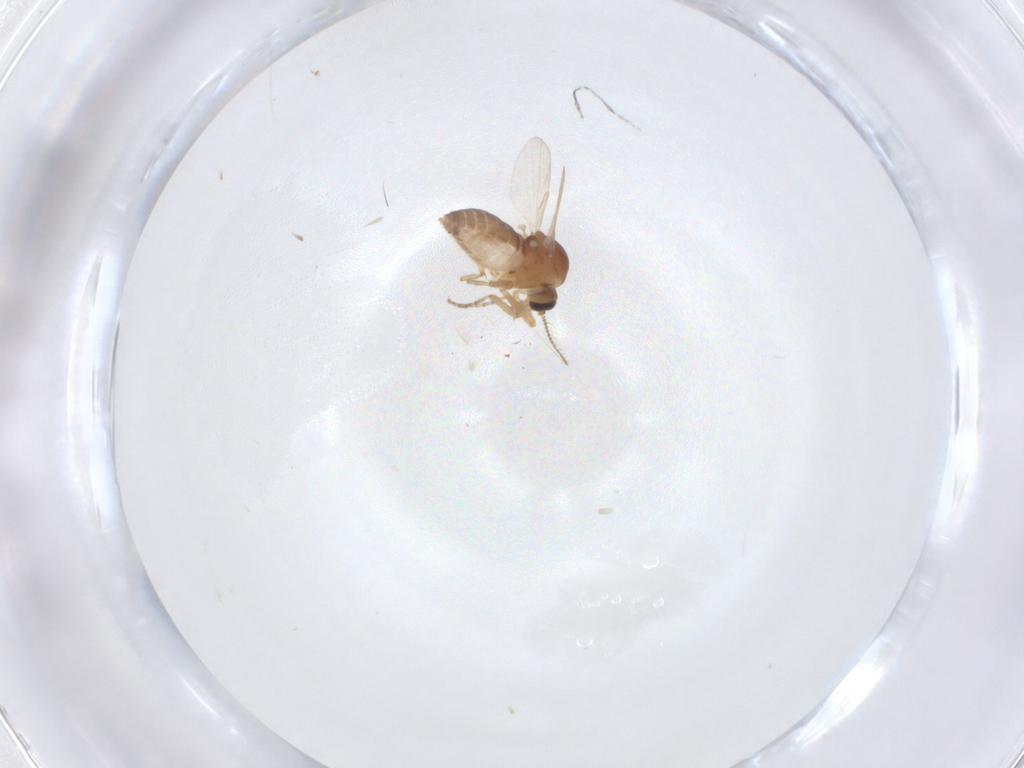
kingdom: Animalia
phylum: Arthropoda
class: Insecta
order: Diptera
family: Ceratopogonidae
